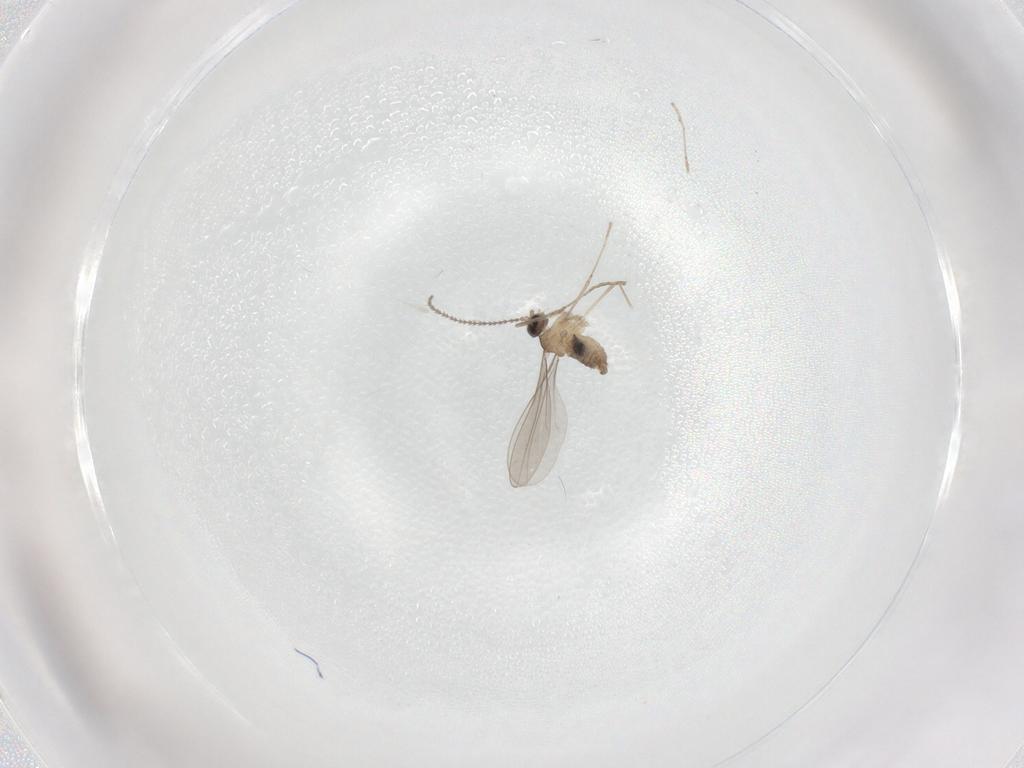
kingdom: Animalia
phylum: Arthropoda
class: Insecta
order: Diptera
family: Cecidomyiidae
